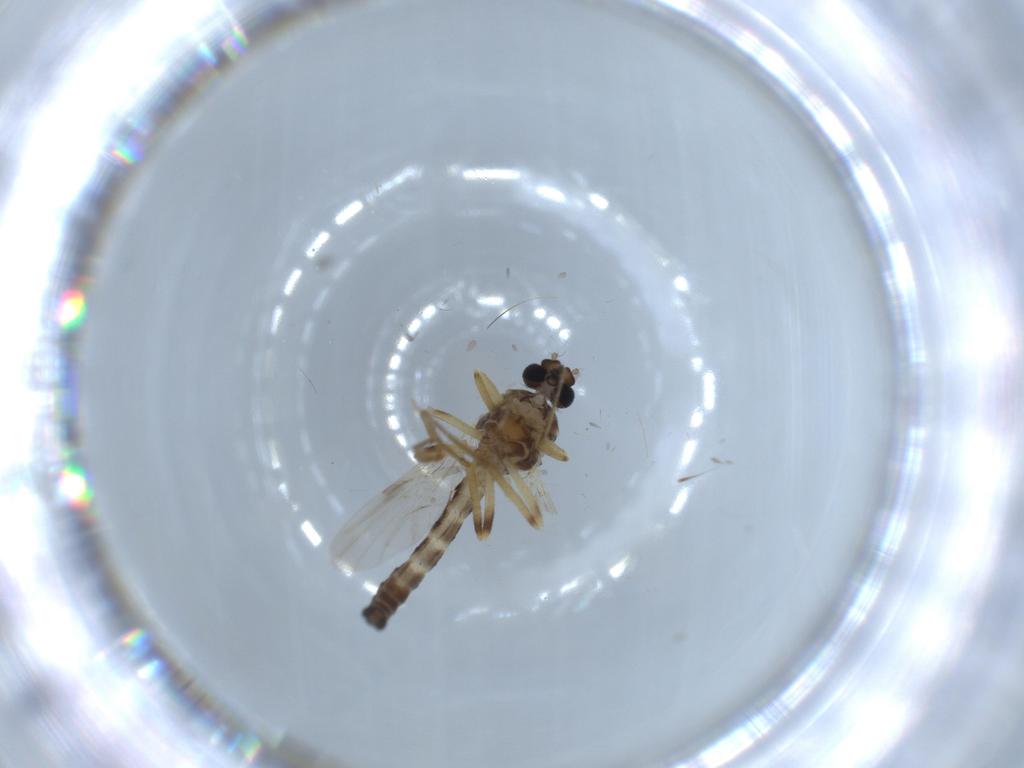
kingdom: Animalia
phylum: Arthropoda
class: Insecta
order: Diptera
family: Ceratopogonidae
